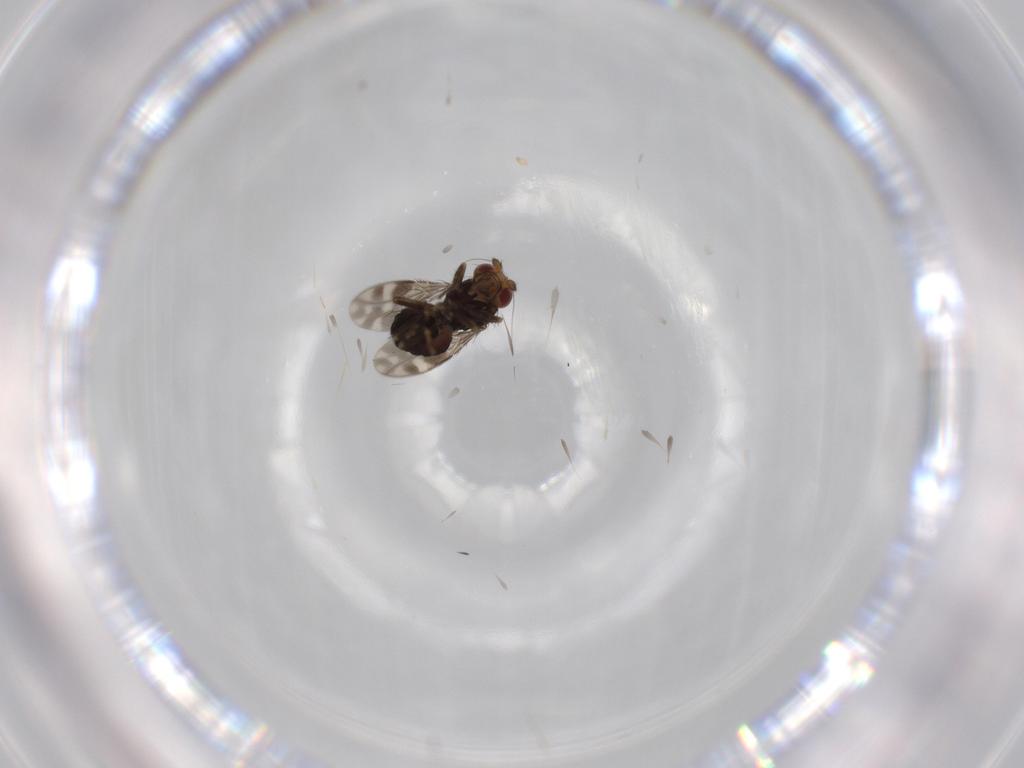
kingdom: Animalia
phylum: Arthropoda
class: Insecta
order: Diptera
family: Sphaeroceridae
